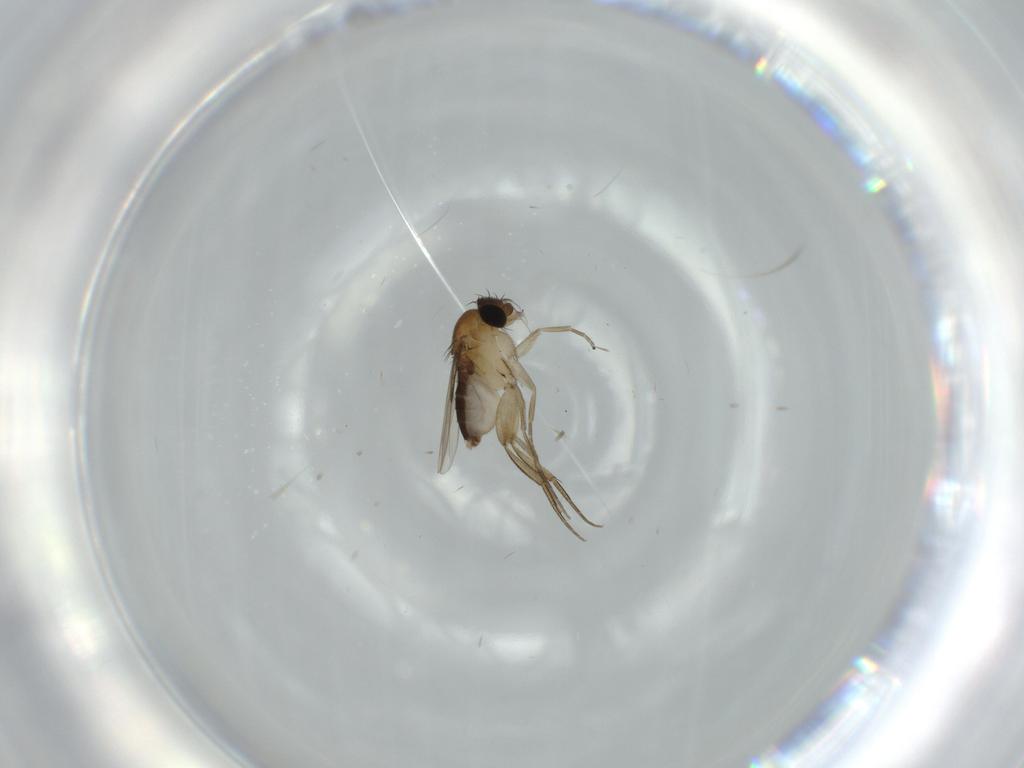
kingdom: Animalia
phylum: Arthropoda
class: Insecta
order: Diptera
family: Phoridae
